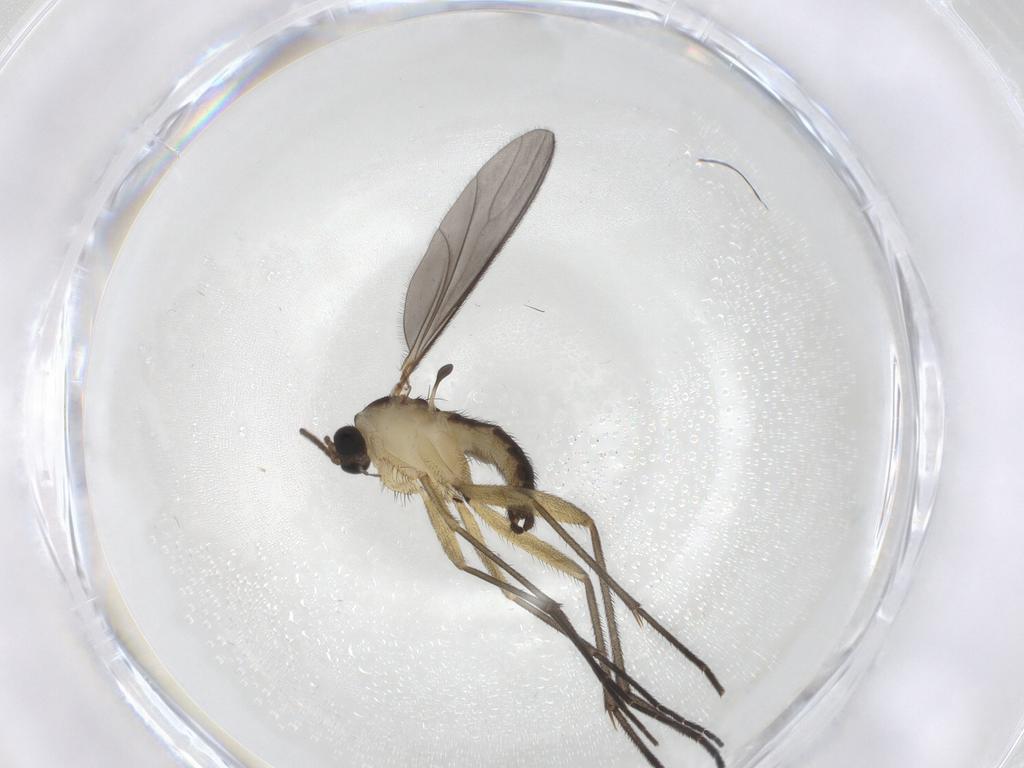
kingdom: Animalia
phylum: Arthropoda
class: Insecta
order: Diptera
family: Sciaridae
